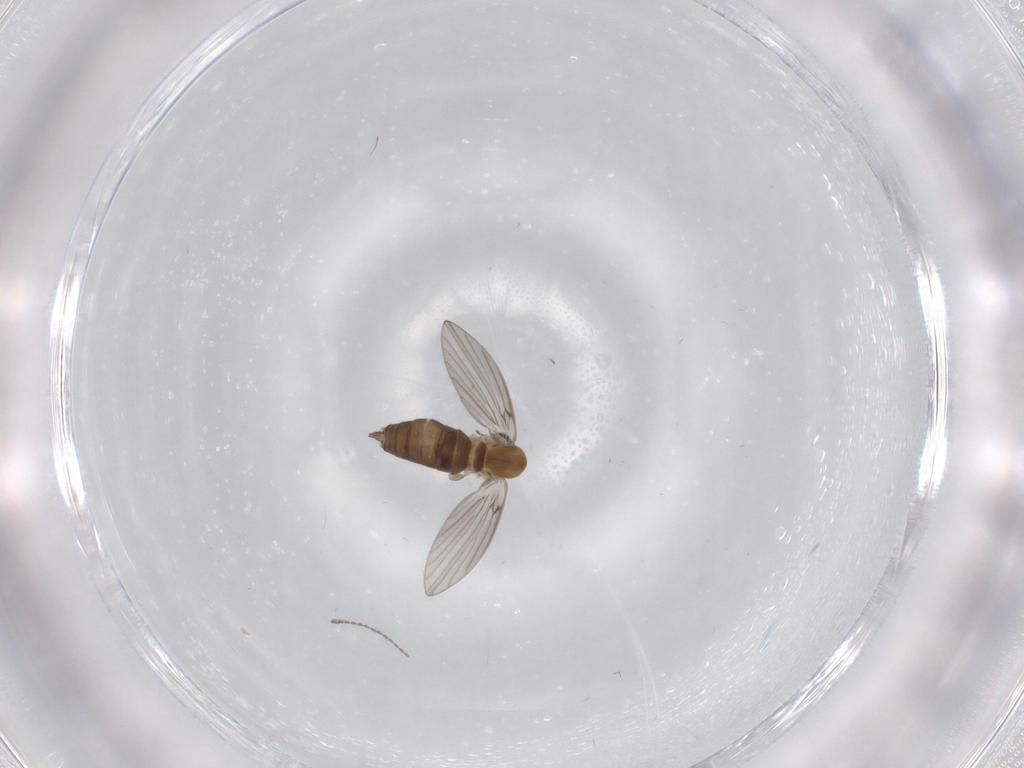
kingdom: Animalia
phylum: Arthropoda
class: Insecta
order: Diptera
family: Psychodidae
